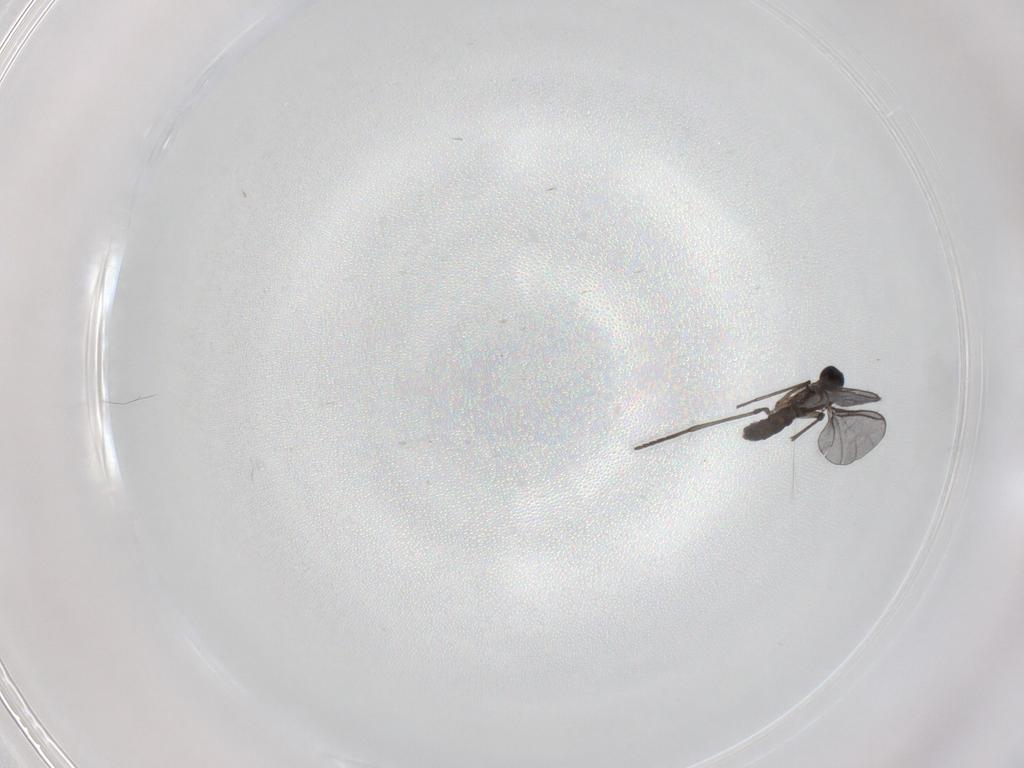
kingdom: Animalia
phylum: Arthropoda
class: Insecta
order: Diptera
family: Phoridae
